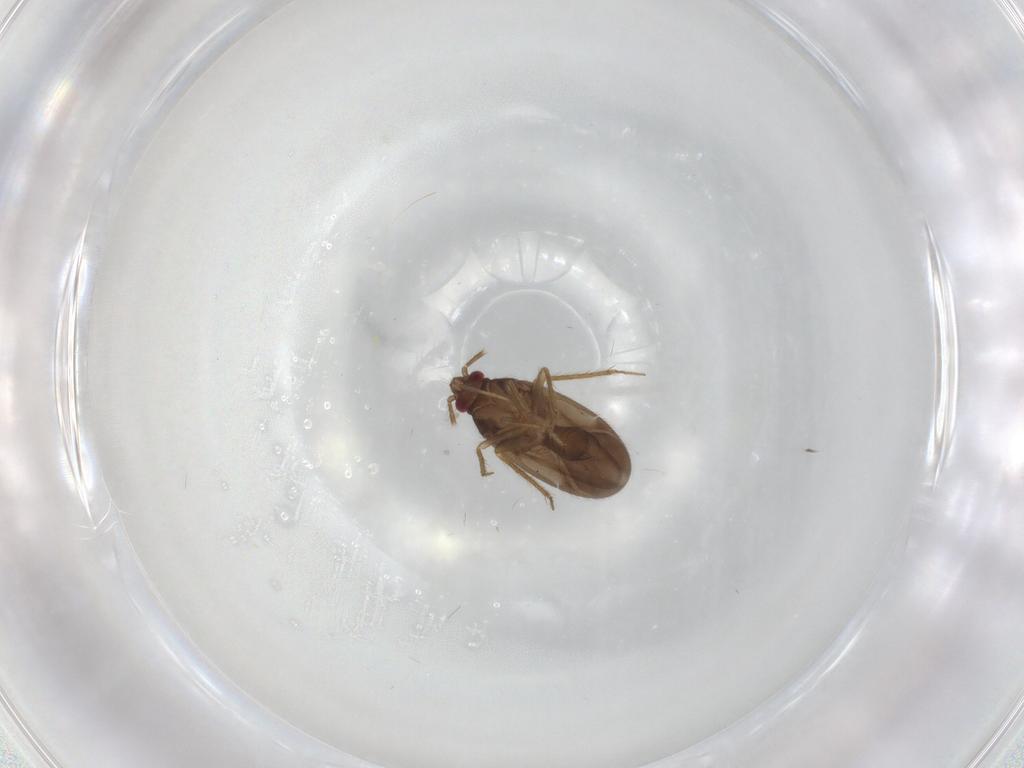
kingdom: Animalia
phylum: Arthropoda
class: Insecta
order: Hemiptera
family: Ceratocombidae
